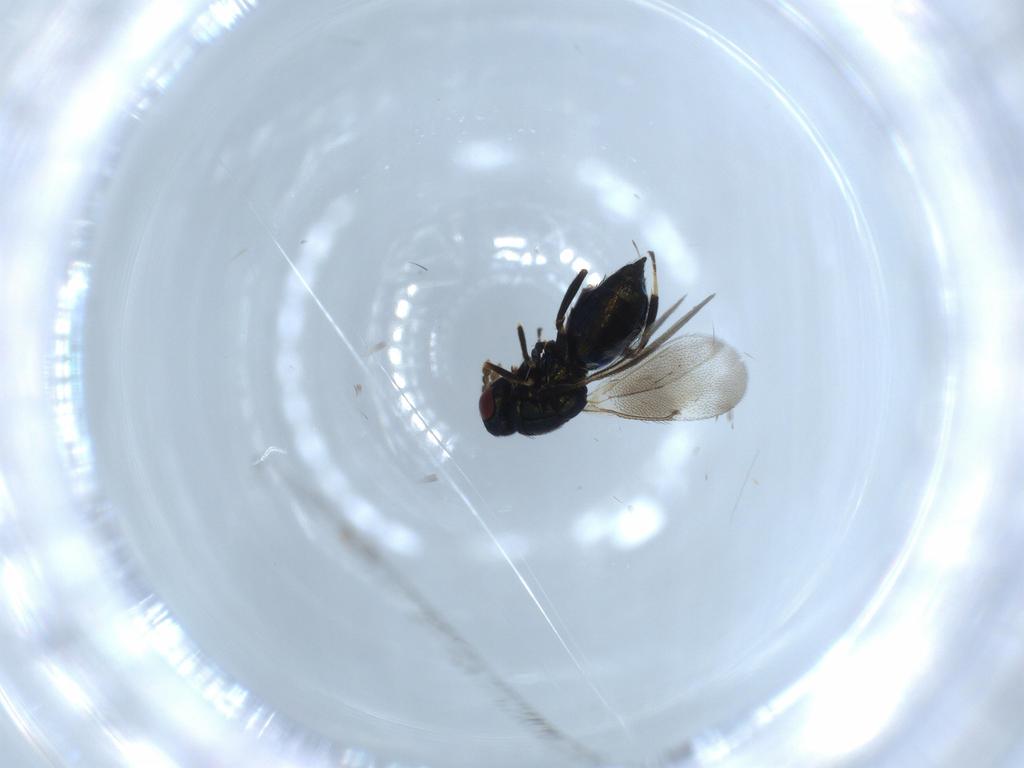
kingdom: Animalia
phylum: Arthropoda
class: Insecta
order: Hymenoptera
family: Eulophidae
